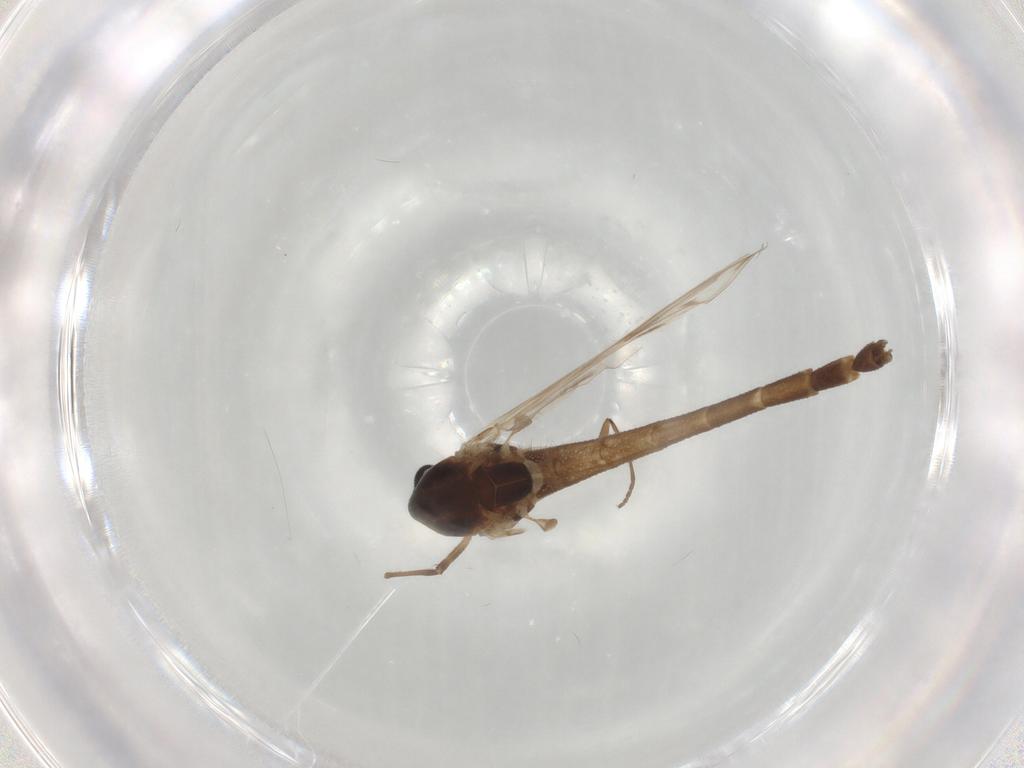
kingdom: Animalia
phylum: Arthropoda
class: Insecta
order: Diptera
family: Chironomidae
